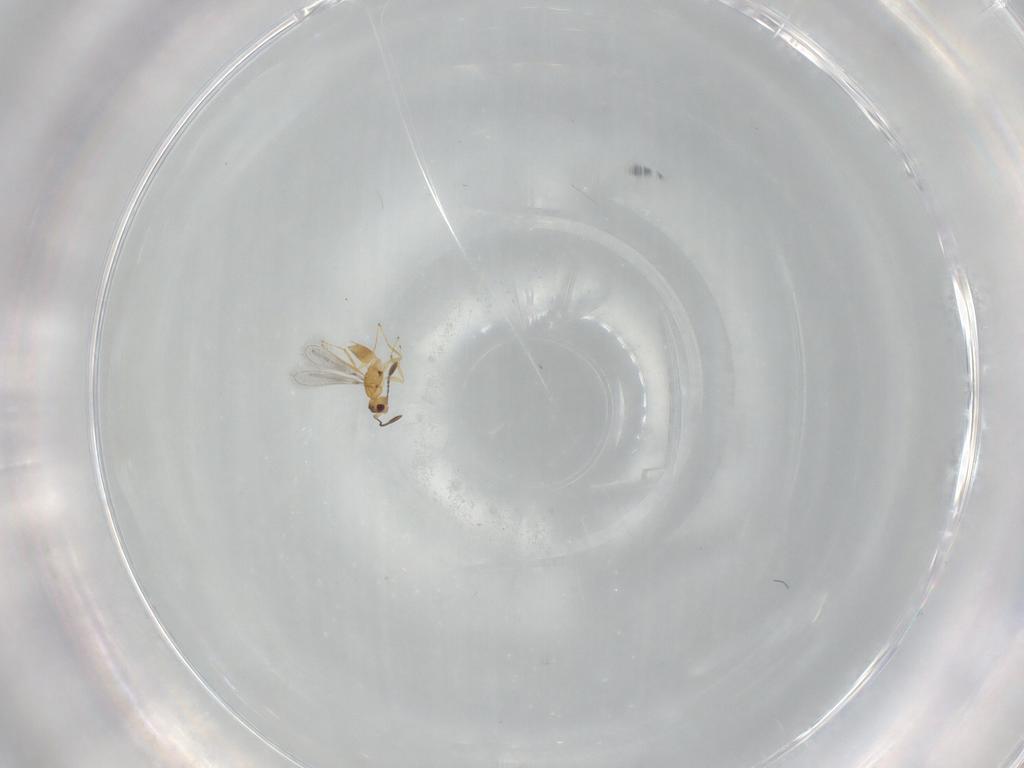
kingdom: Animalia
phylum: Arthropoda
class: Insecta
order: Hymenoptera
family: Mymaridae
